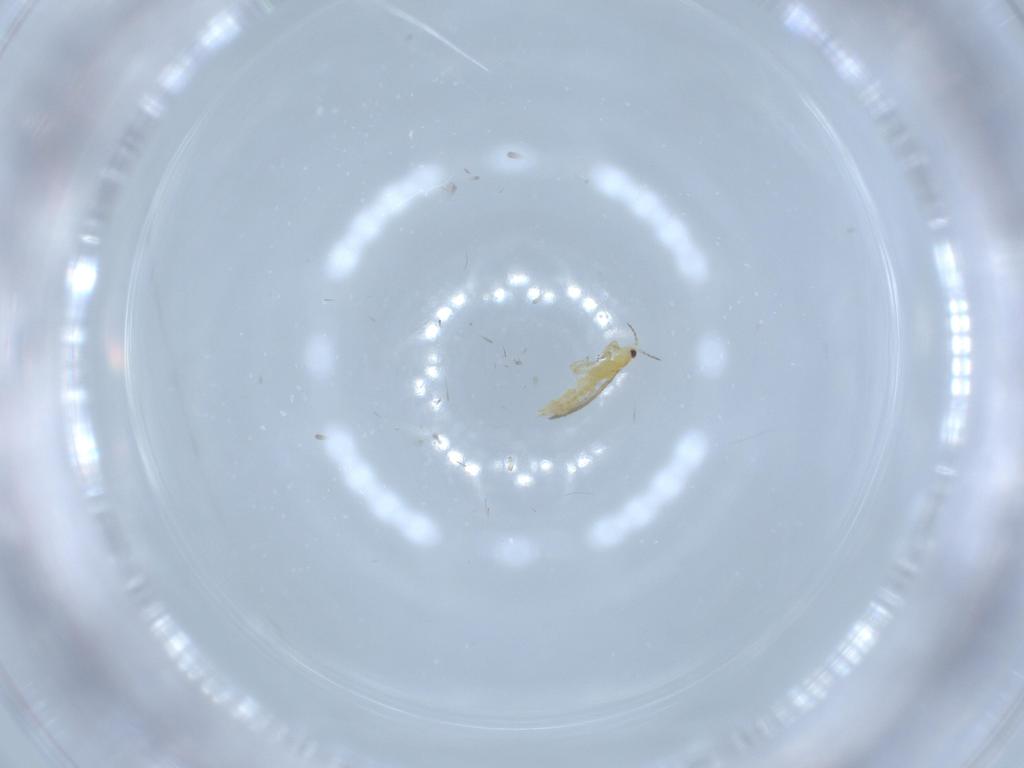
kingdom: Animalia
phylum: Arthropoda
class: Insecta
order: Thysanoptera
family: Thripidae
